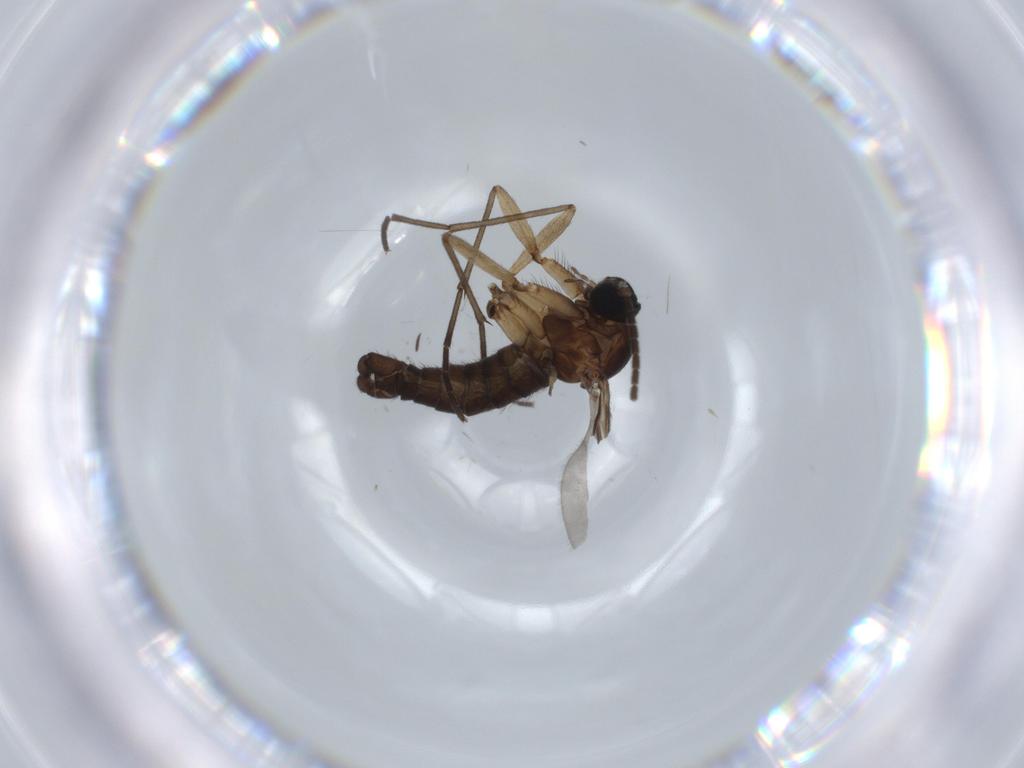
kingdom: Animalia
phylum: Arthropoda
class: Insecta
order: Diptera
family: Sciaridae
